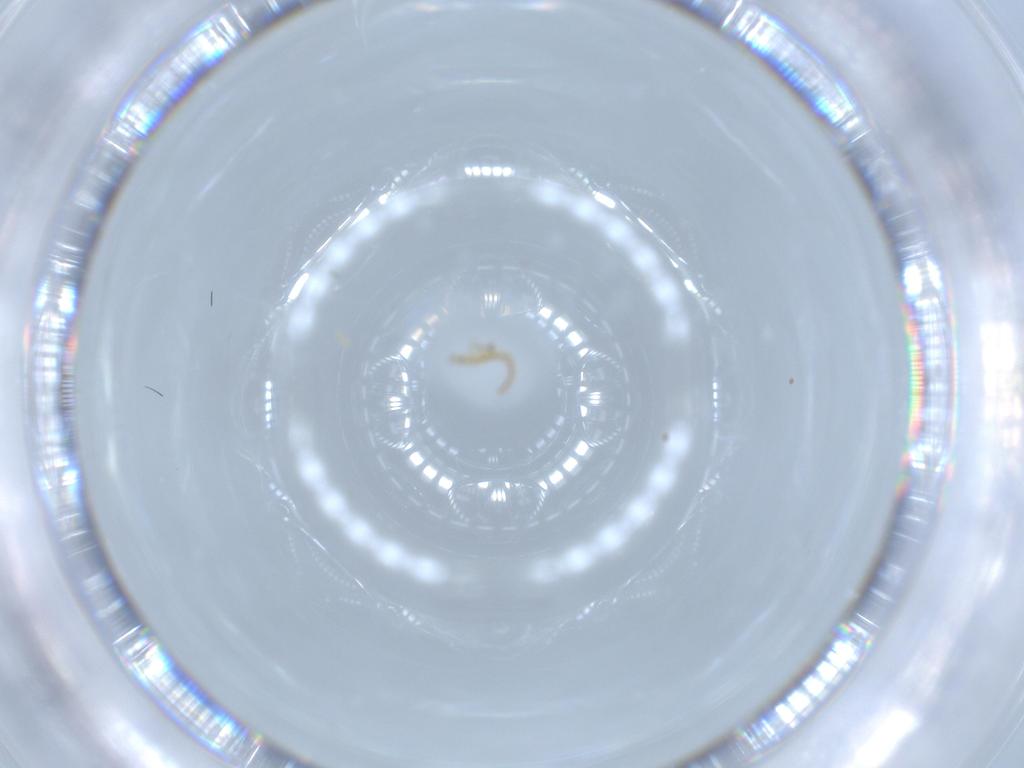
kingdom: Animalia
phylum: Arthropoda
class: Insecta
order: Neuroptera
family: Mantispidae
